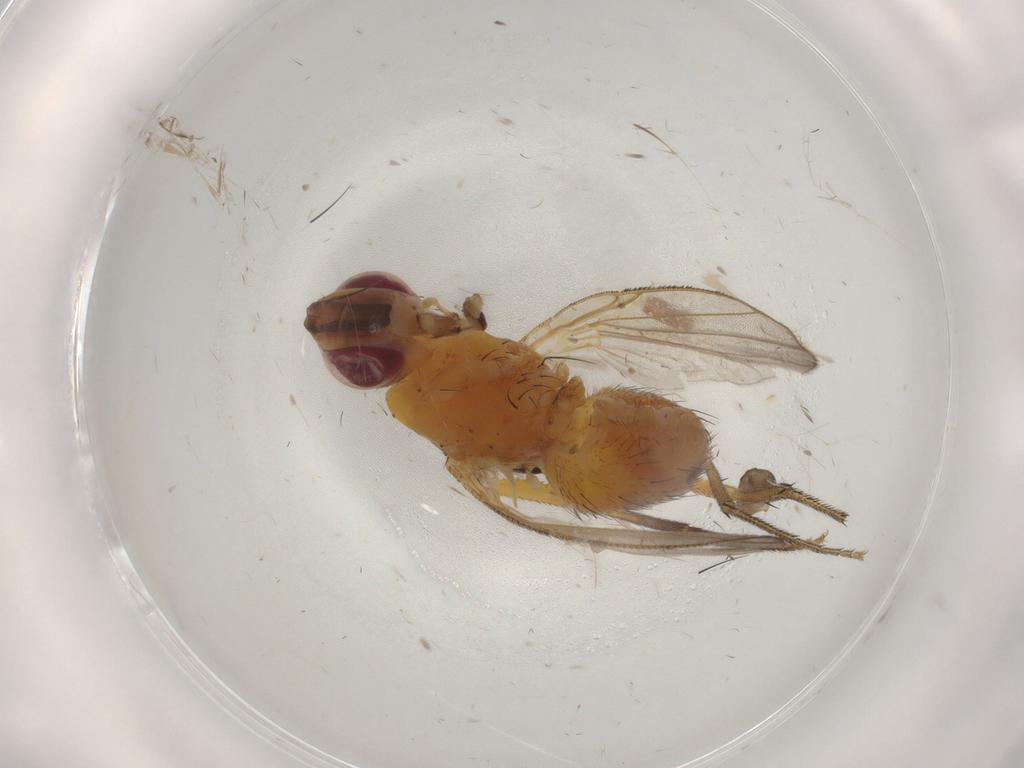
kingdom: Animalia
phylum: Arthropoda
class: Insecta
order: Diptera
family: Muscidae
